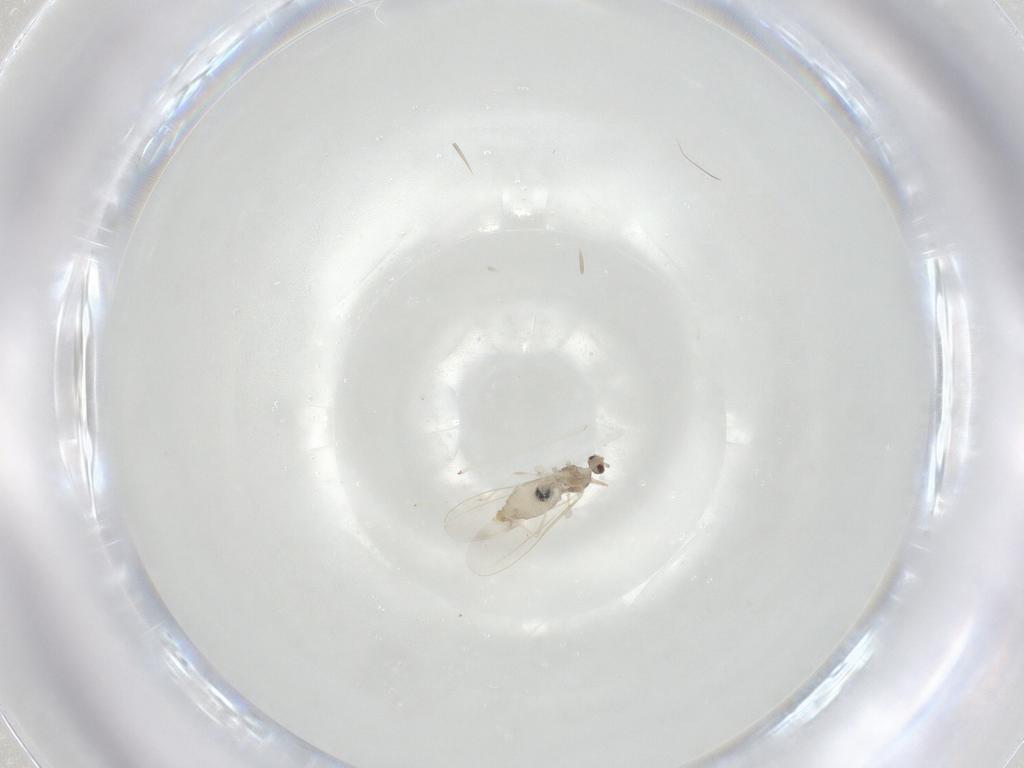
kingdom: Animalia
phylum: Arthropoda
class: Insecta
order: Diptera
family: Cecidomyiidae
